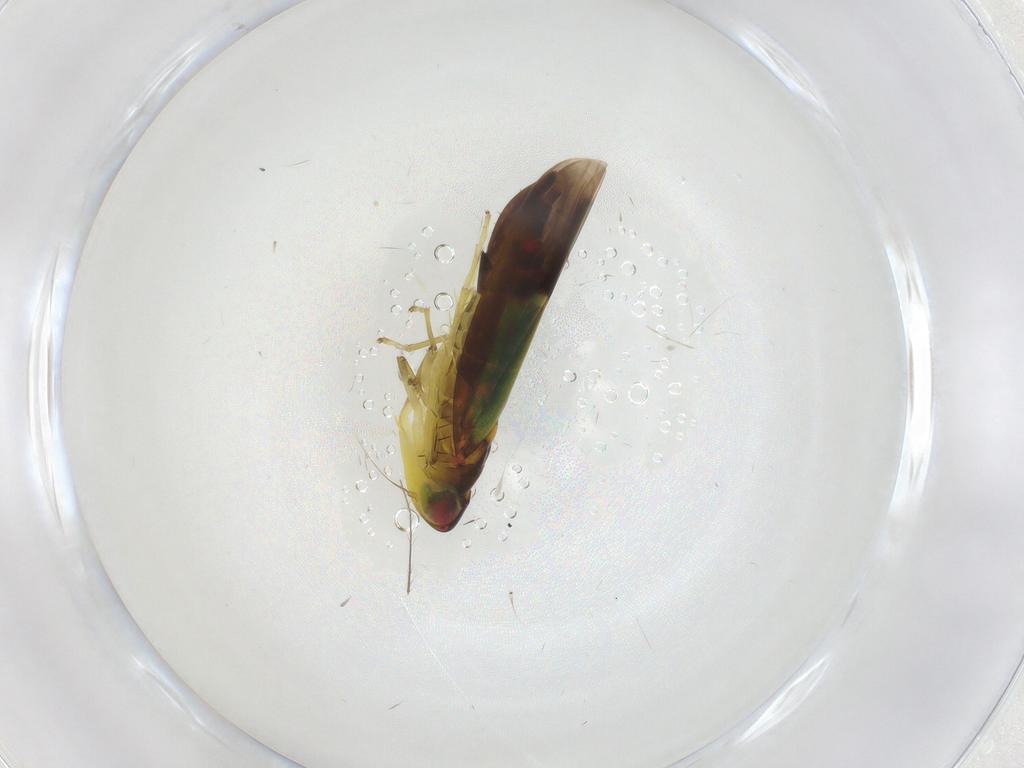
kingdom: Animalia
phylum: Arthropoda
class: Insecta
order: Hemiptera
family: Cicadellidae
